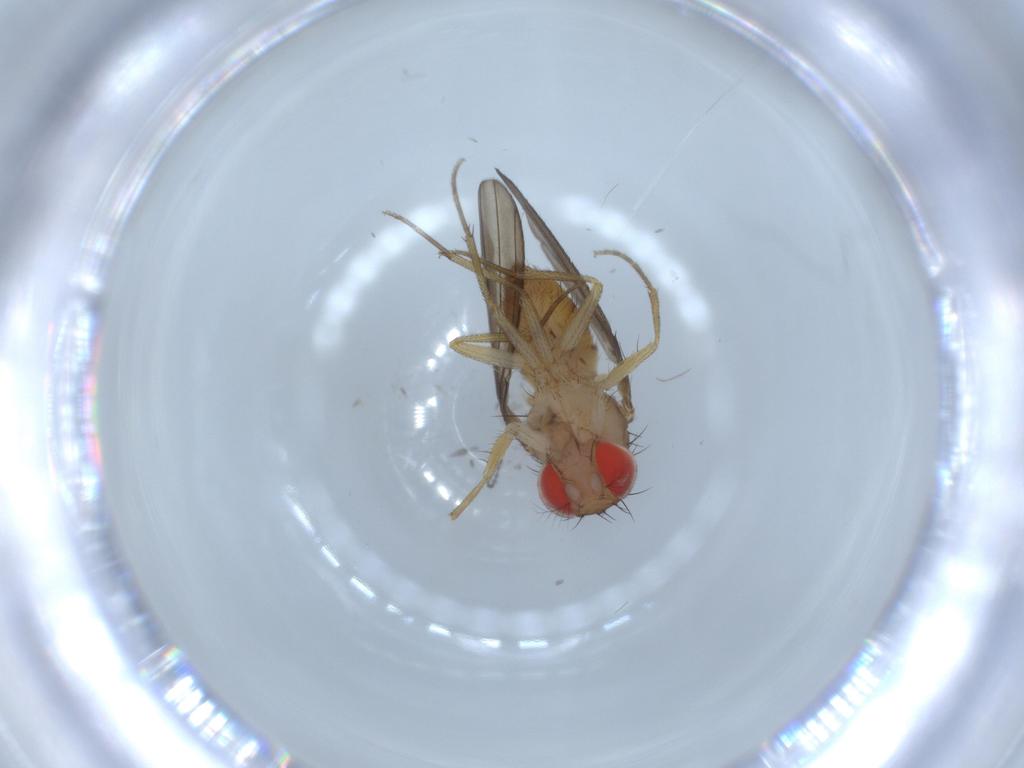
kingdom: Animalia
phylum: Arthropoda
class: Insecta
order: Diptera
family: Drosophilidae
